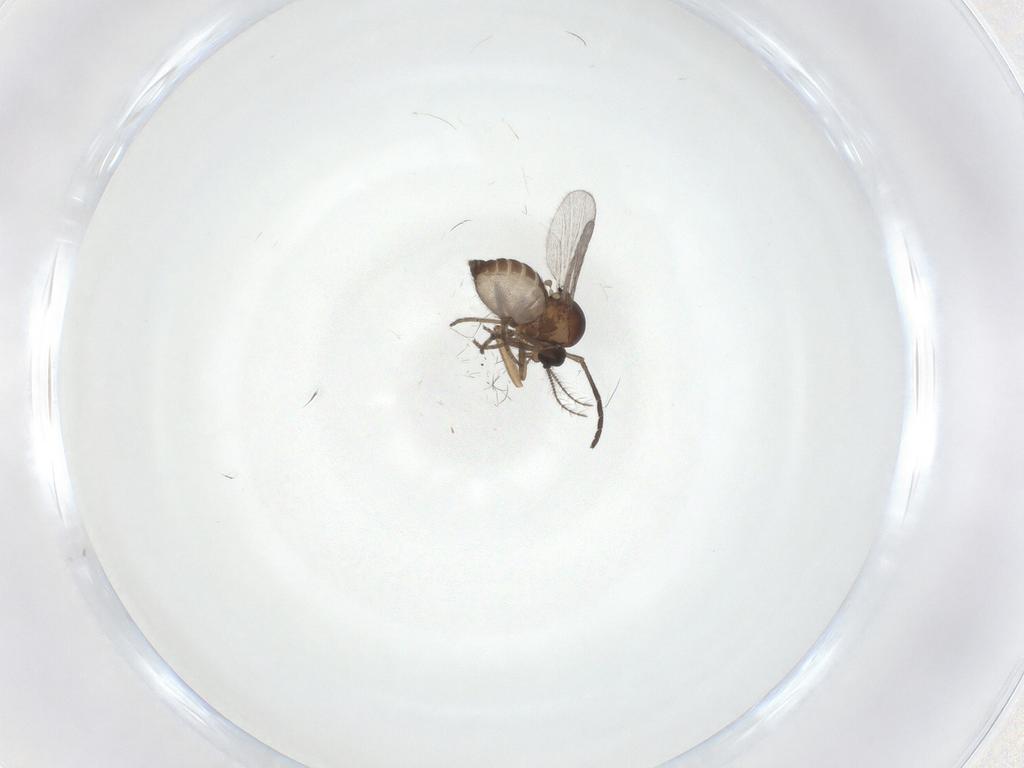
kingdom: Animalia
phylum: Arthropoda
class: Insecta
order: Diptera
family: Sciaridae
